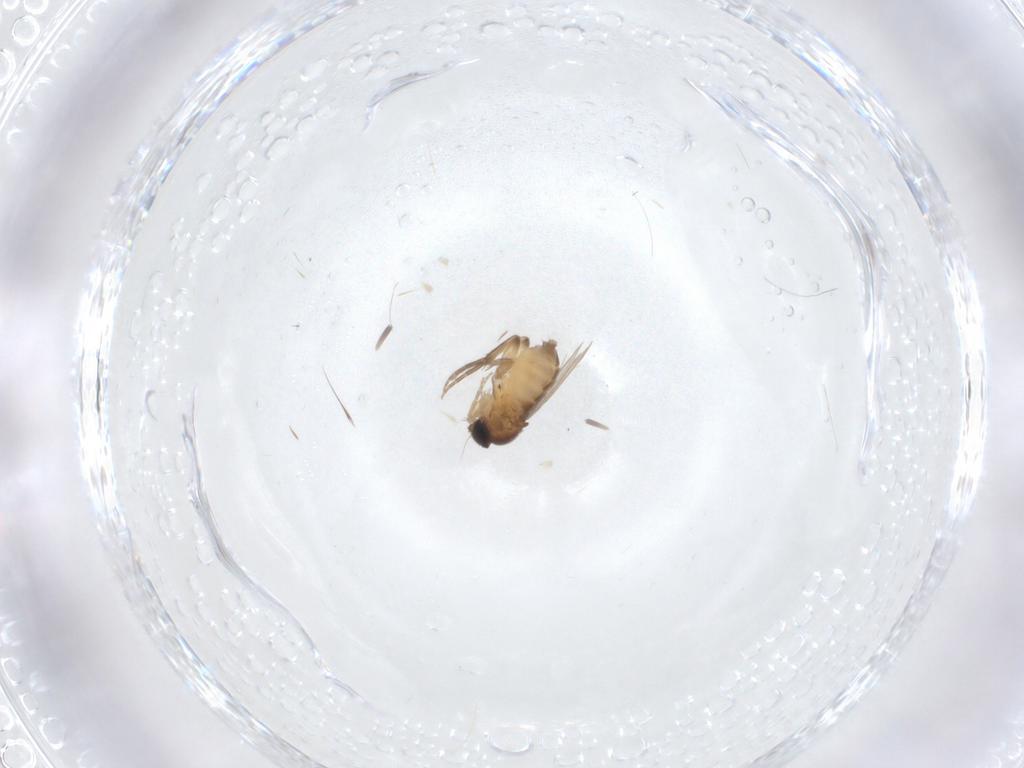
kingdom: Animalia
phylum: Arthropoda
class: Insecta
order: Diptera
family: Phoridae
